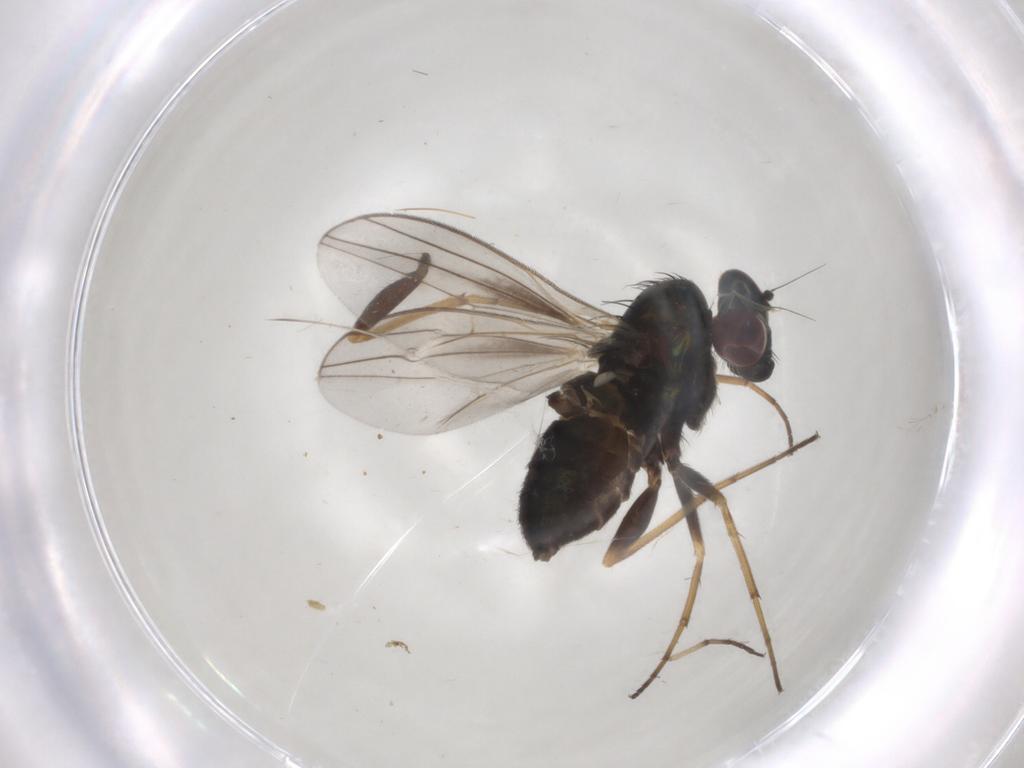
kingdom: Animalia
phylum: Arthropoda
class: Insecta
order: Diptera
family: Dolichopodidae
